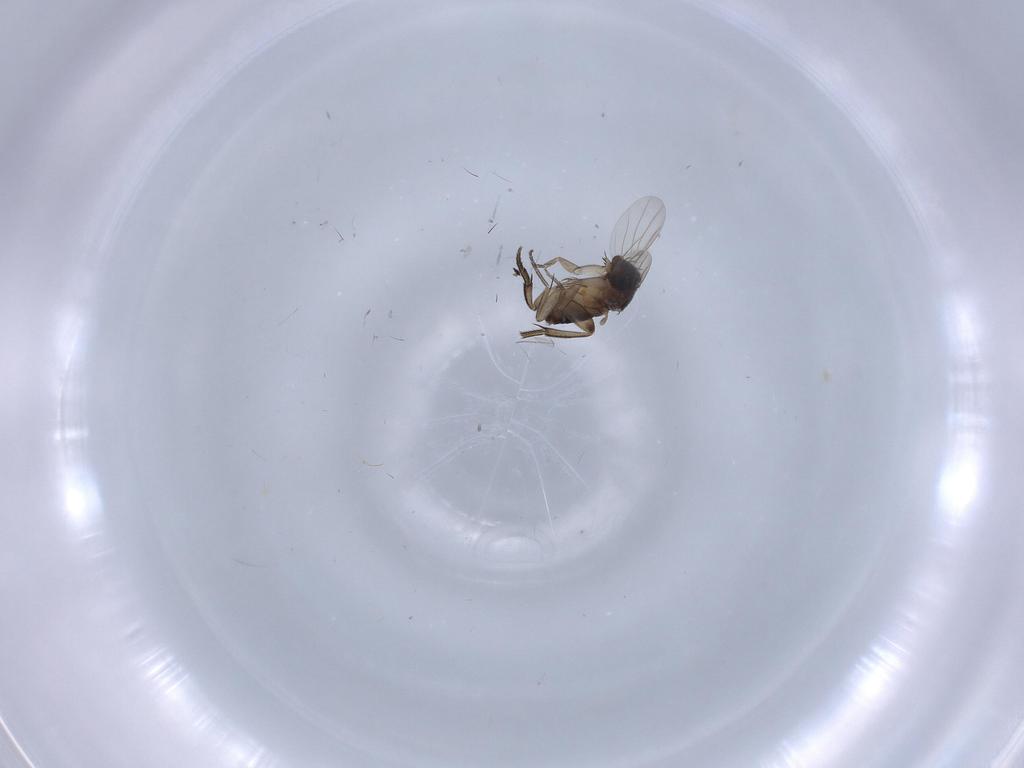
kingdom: Animalia
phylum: Arthropoda
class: Insecta
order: Diptera
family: Phoridae
